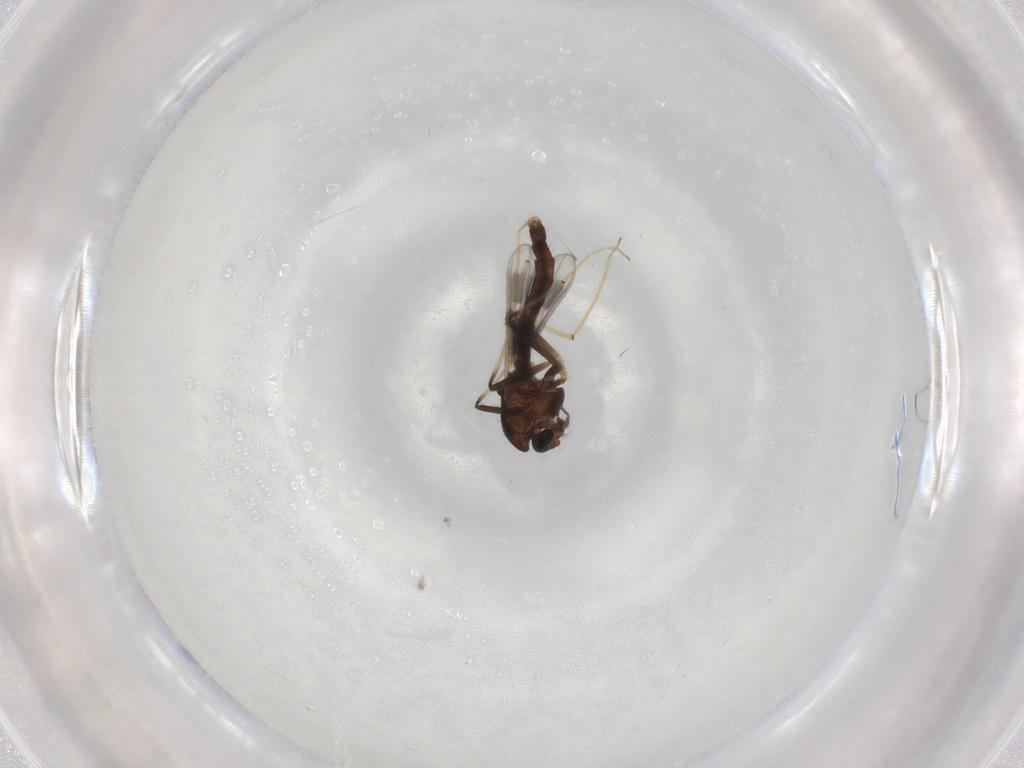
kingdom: Animalia
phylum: Arthropoda
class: Insecta
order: Diptera
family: Chironomidae
